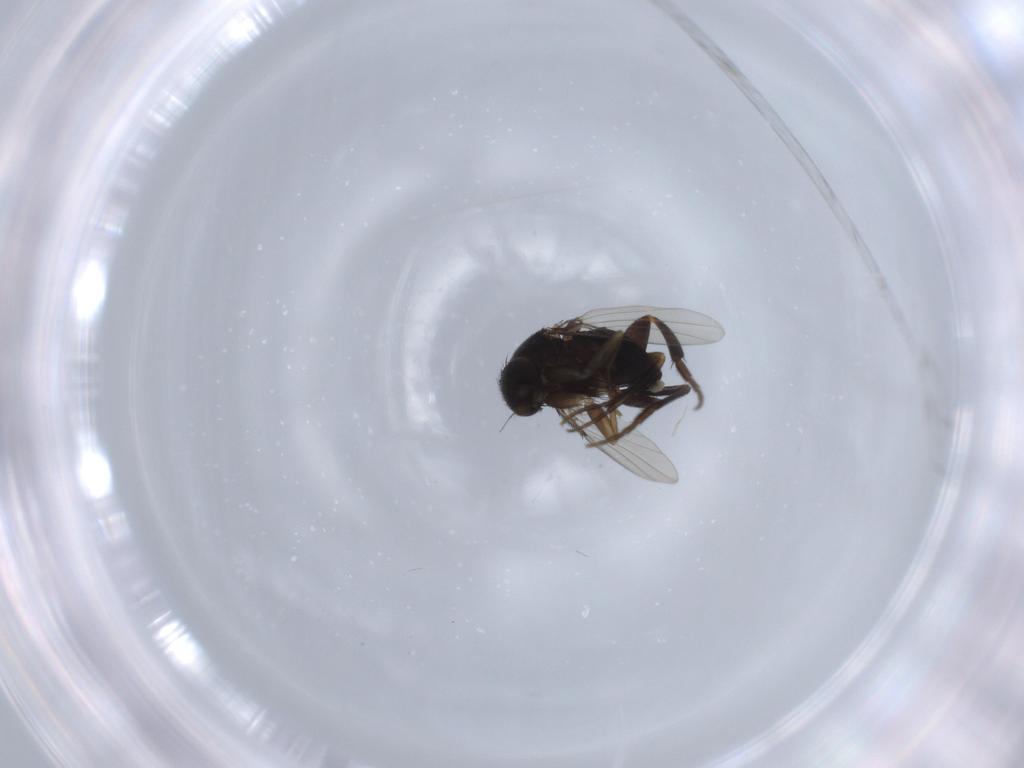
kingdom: Animalia
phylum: Arthropoda
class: Insecta
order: Diptera
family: Phoridae
